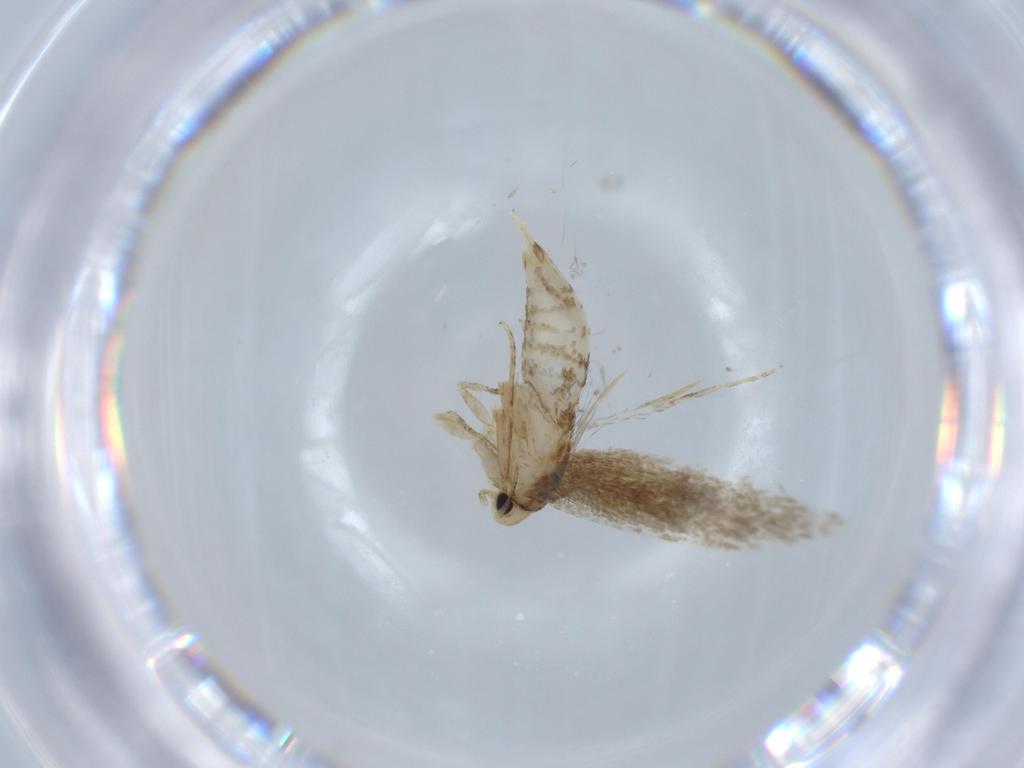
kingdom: Animalia
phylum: Arthropoda
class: Insecta
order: Lepidoptera
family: Tineidae
